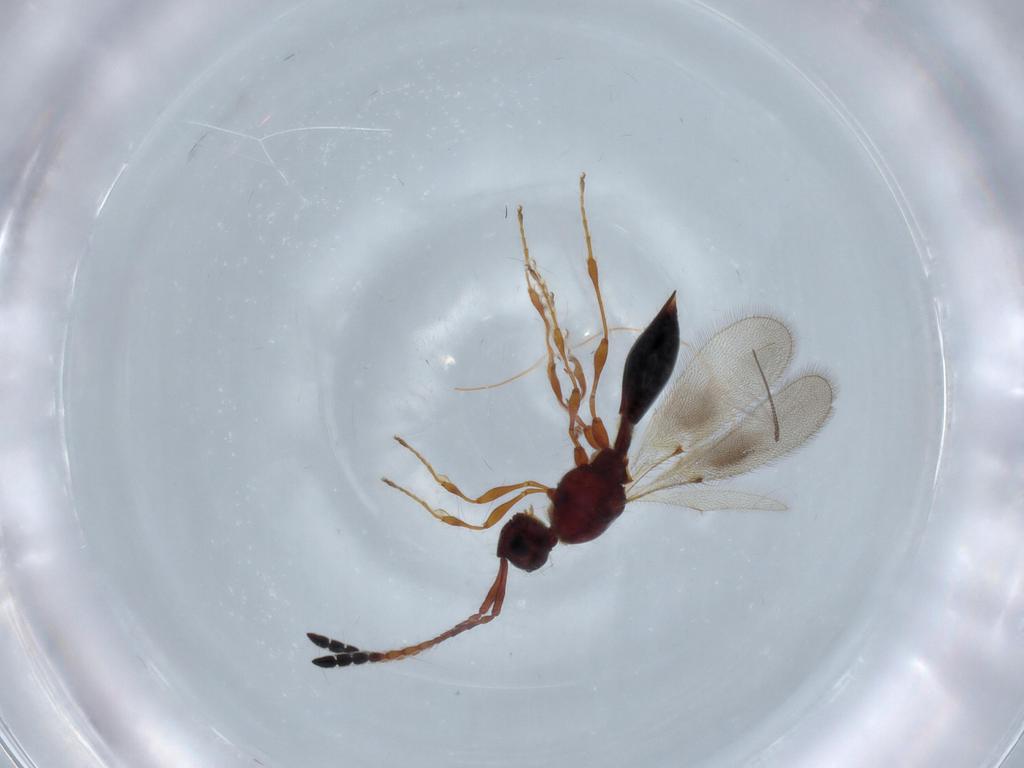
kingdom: Animalia
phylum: Arthropoda
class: Insecta
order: Hymenoptera
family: Diapriidae
